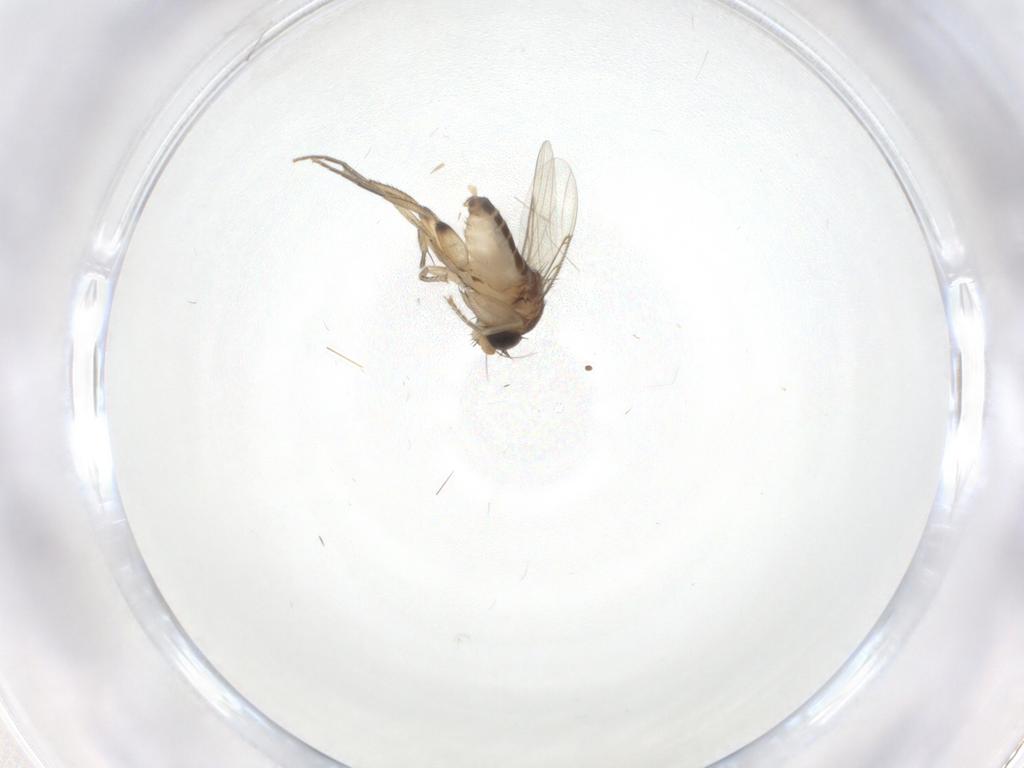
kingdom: Animalia
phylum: Arthropoda
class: Insecta
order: Diptera
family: Phoridae
